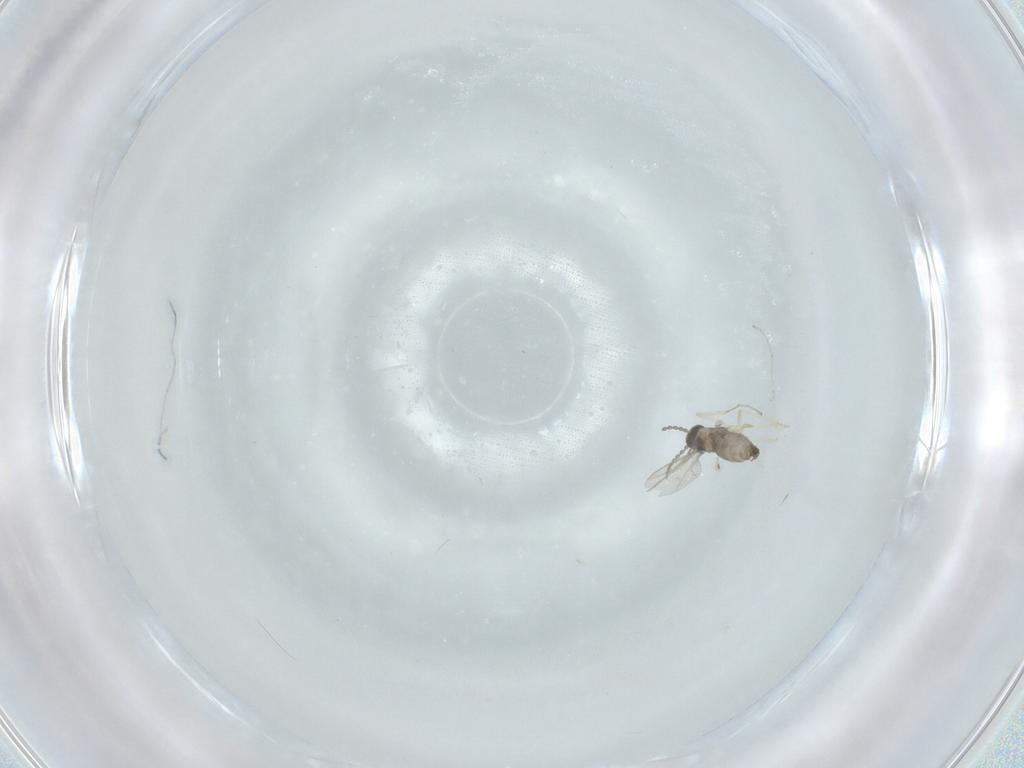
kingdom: Animalia
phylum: Arthropoda
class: Insecta
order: Diptera
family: Cecidomyiidae
